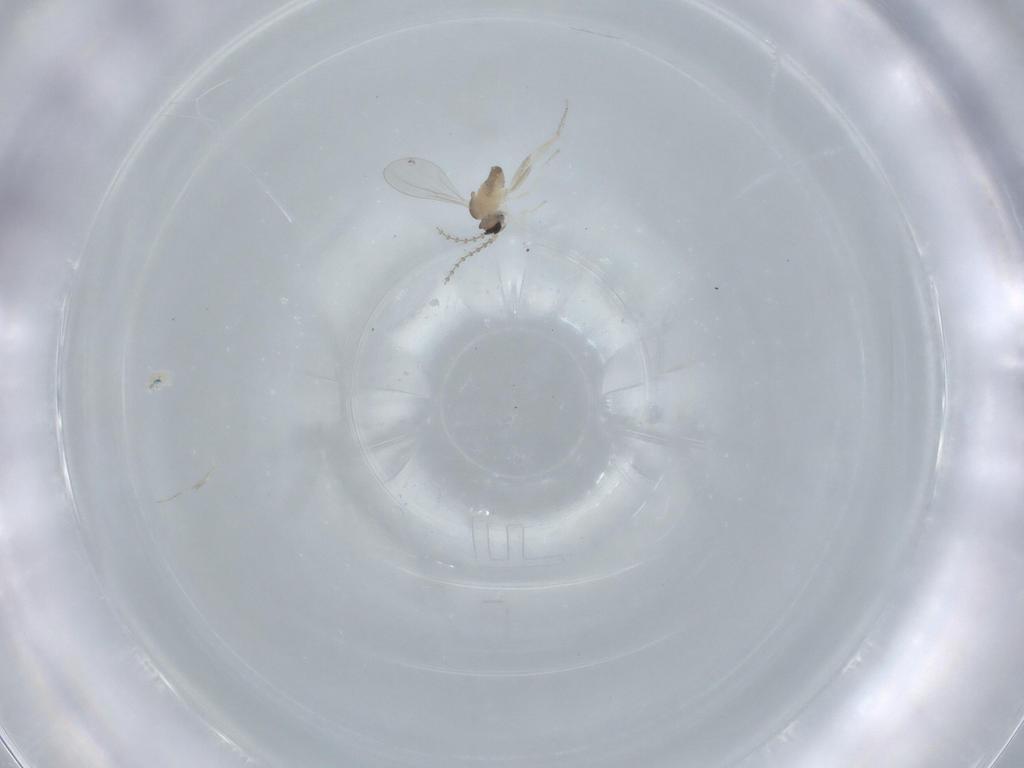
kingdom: Animalia
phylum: Arthropoda
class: Insecta
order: Diptera
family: Cecidomyiidae
